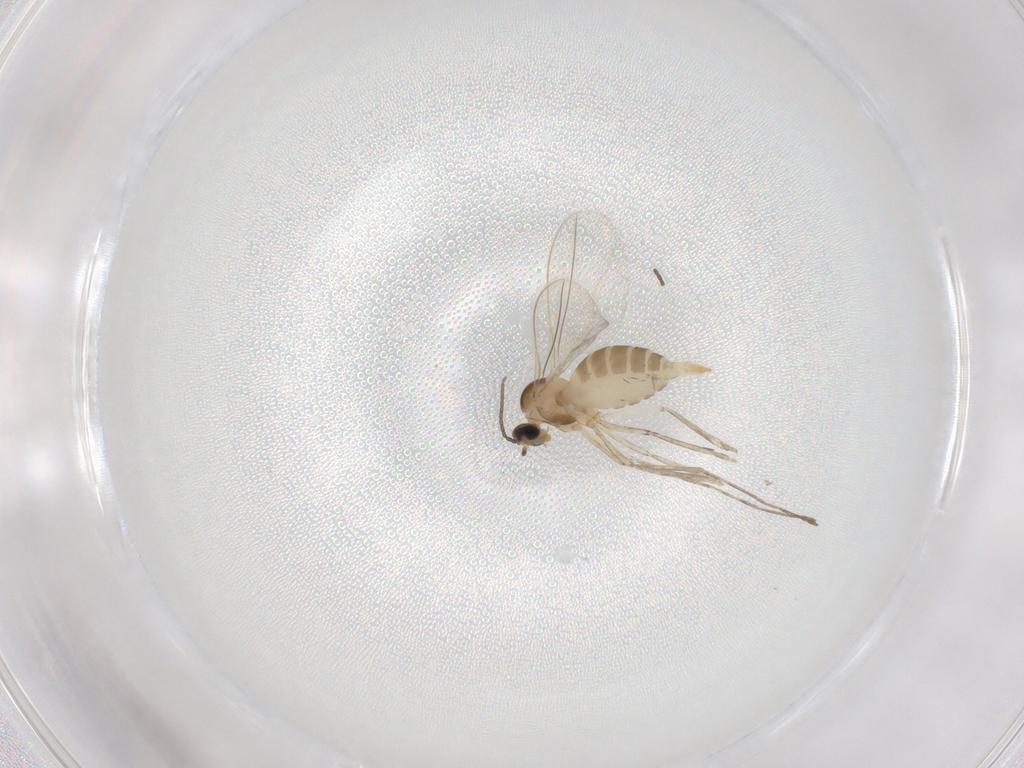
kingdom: Animalia
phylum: Arthropoda
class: Insecta
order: Diptera
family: Cecidomyiidae
